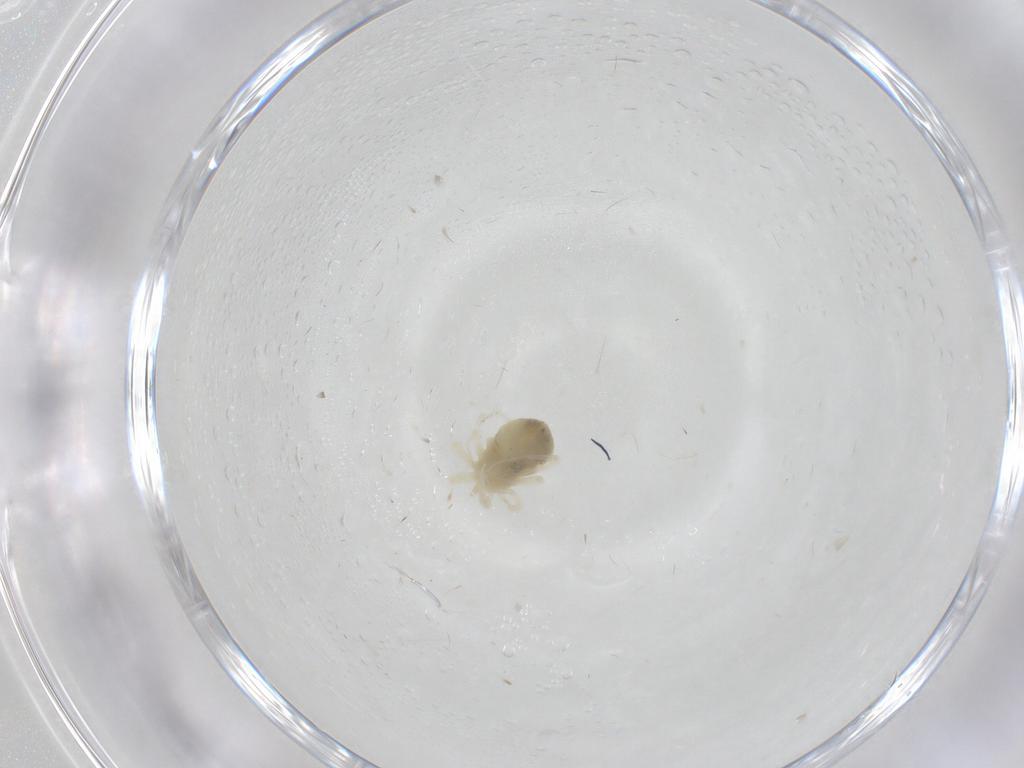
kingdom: Animalia
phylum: Arthropoda
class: Arachnida
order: Trombidiformes
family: Anystidae
